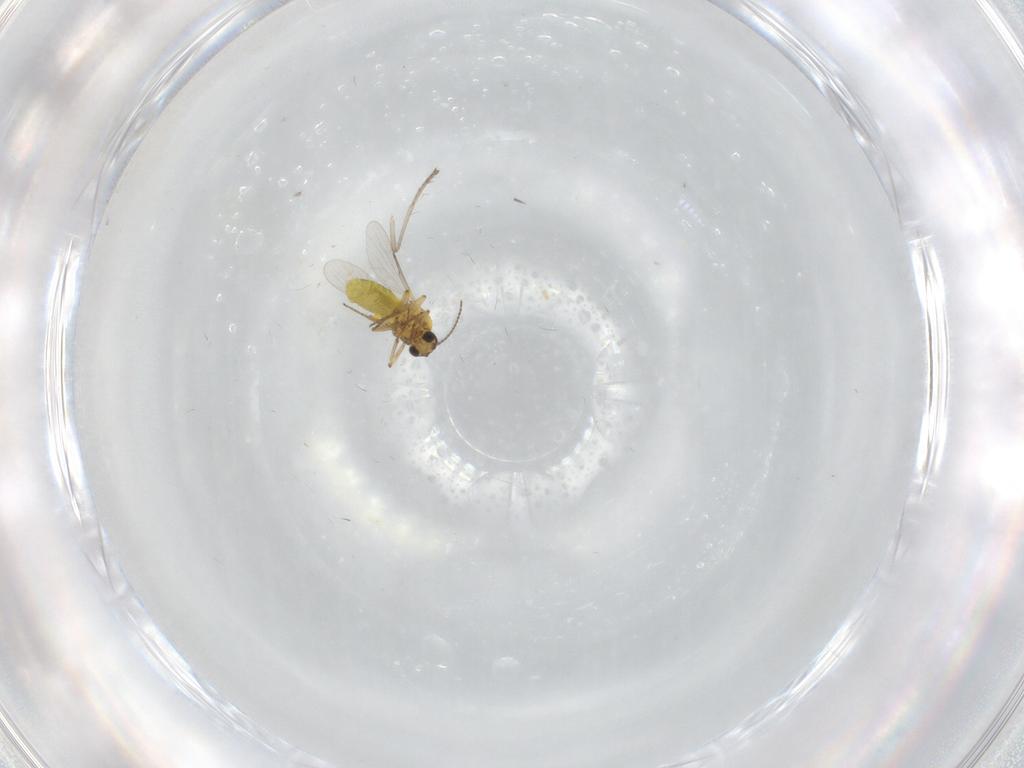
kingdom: Animalia
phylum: Arthropoda
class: Insecta
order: Diptera
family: Psychodidae
